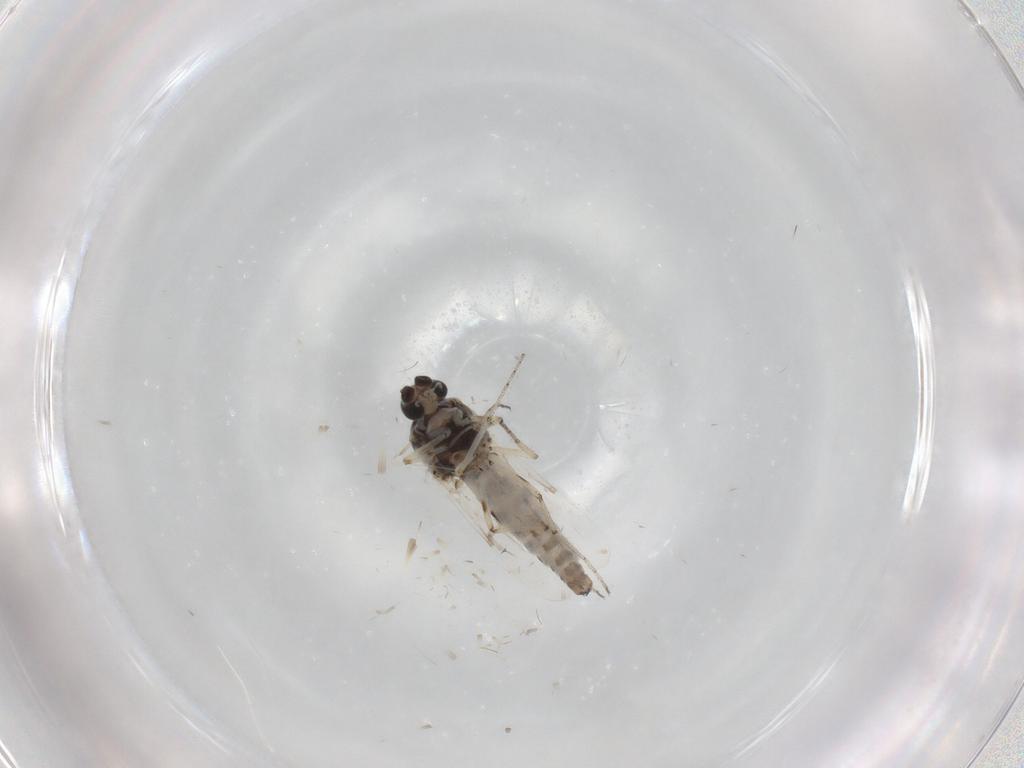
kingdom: Animalia
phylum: Arthropoda
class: Insecta
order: Diptera
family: Ceratopogonidae
